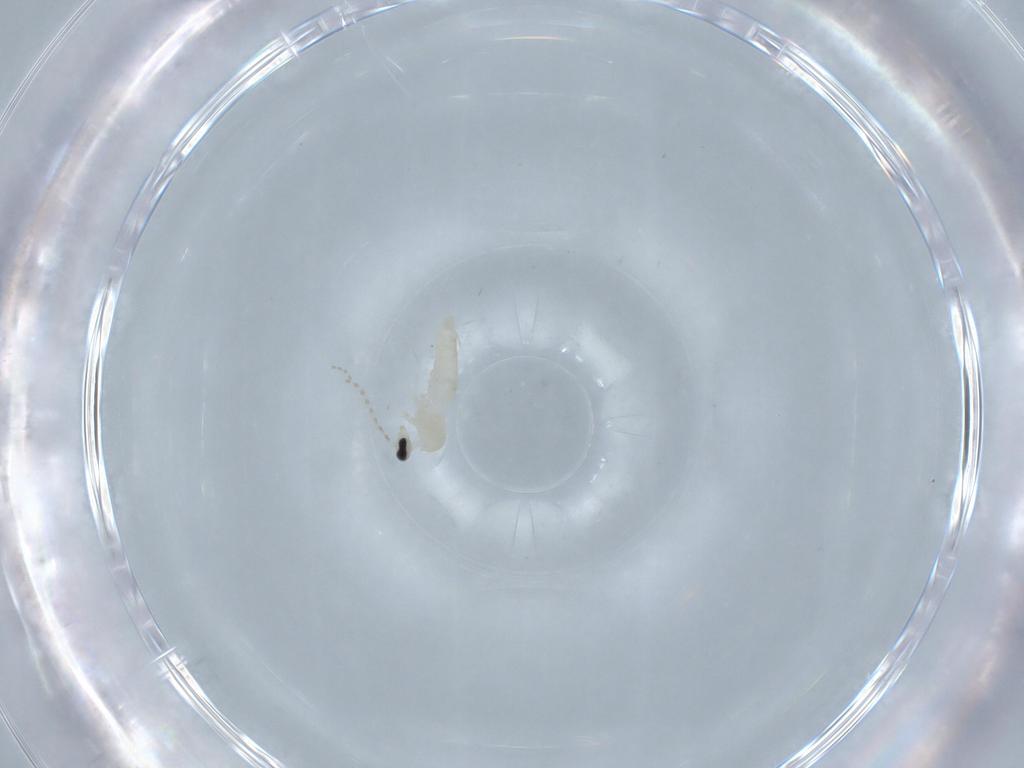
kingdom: Animalia
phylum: Arthropoda
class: Insecta
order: Diptera
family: Cecidomyiidae
